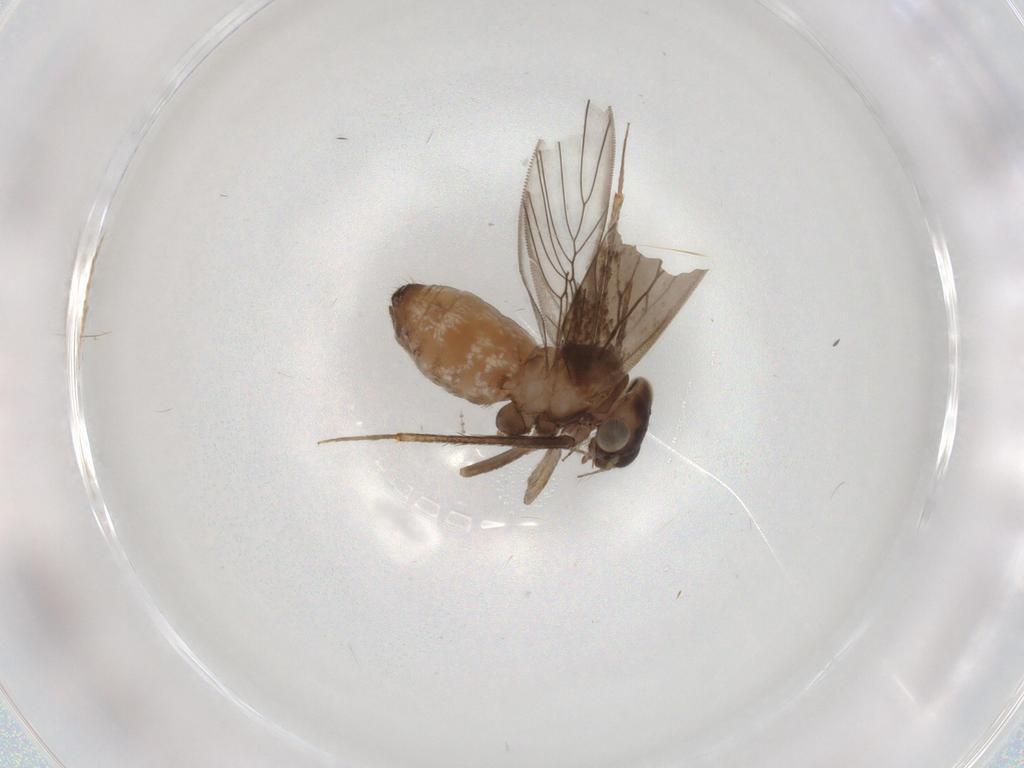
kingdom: Animalia
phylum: Arthropoda
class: Insecta
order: Psocodea
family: Lepidopsocidae
